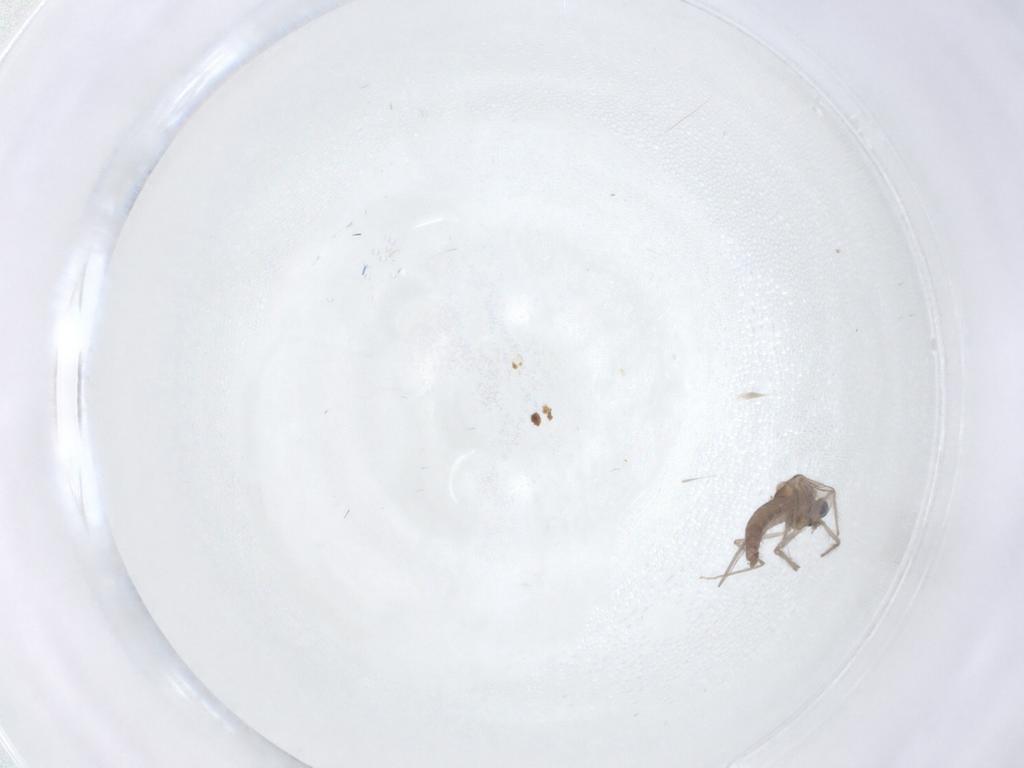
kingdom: Animalia
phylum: Arthropoda
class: Insecta
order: Diptera
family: Chironomidae
